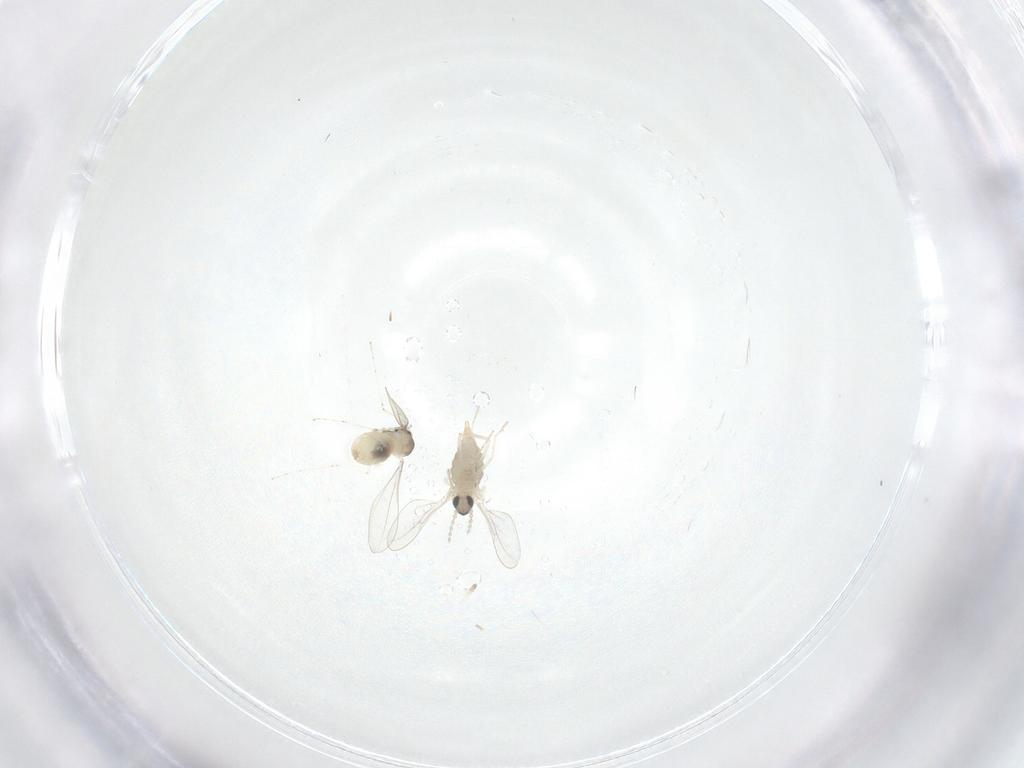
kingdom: Animalia
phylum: Arthropoda
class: Insecta
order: Diptera
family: Cecidomyiidae
